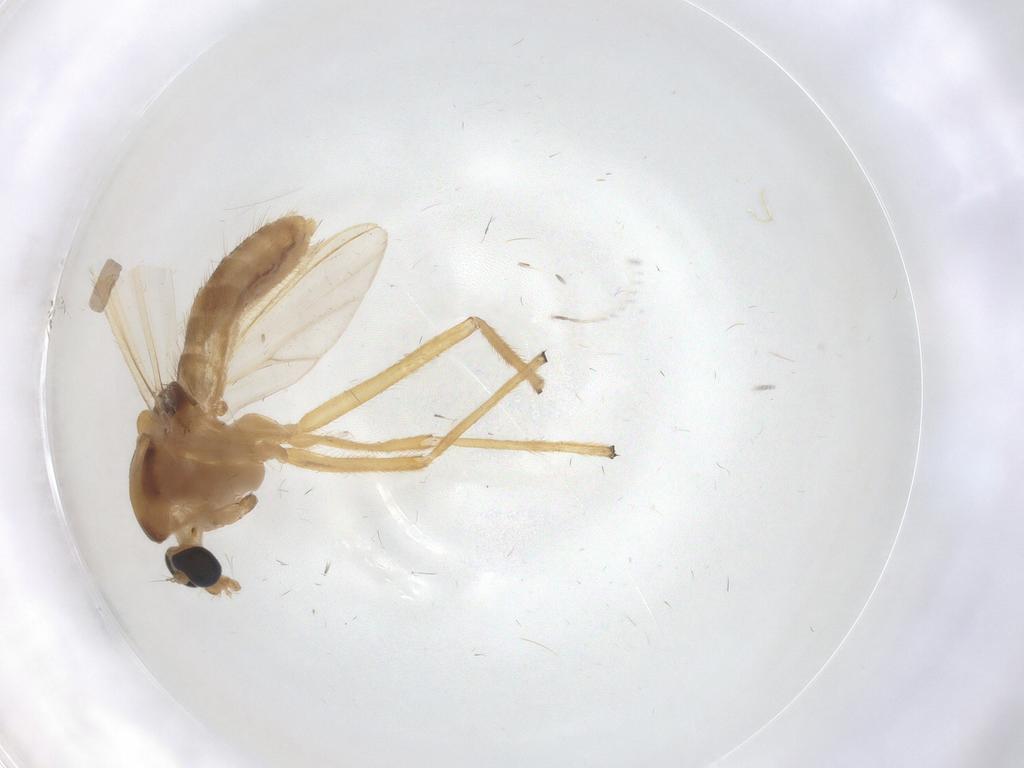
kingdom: Animalia
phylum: Arthropoda
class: Insecta
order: Diptera
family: Chironomidae
